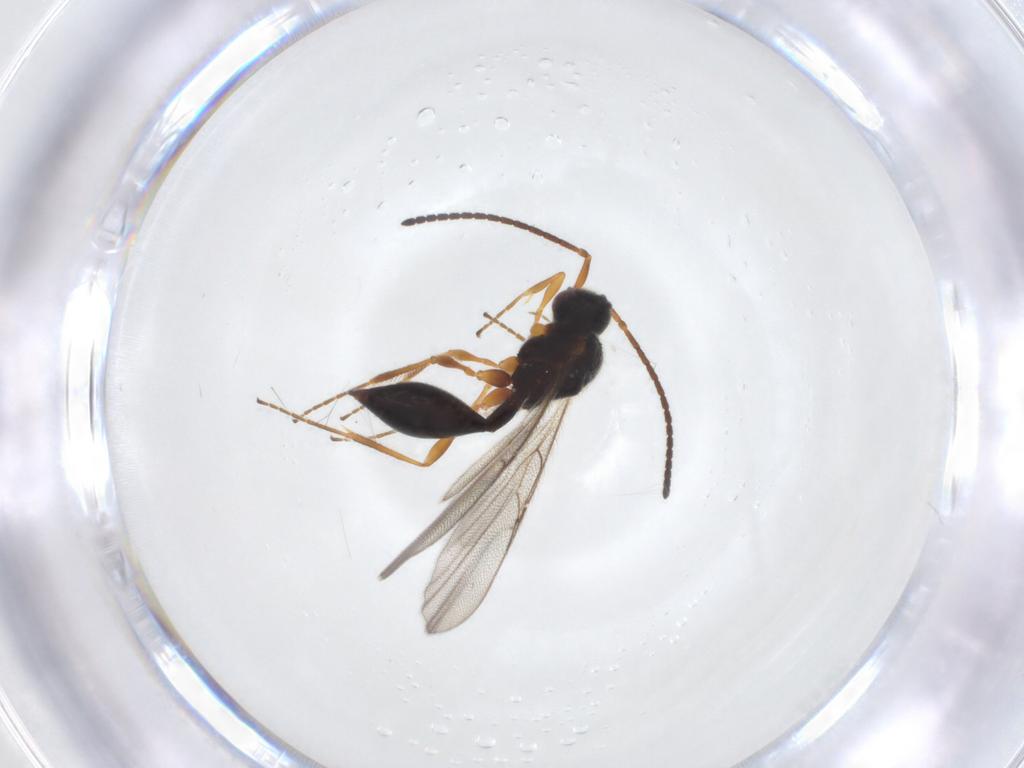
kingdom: Animalia
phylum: Arthropoda
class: Insecta
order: Hymenoptera
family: Diapriidae
